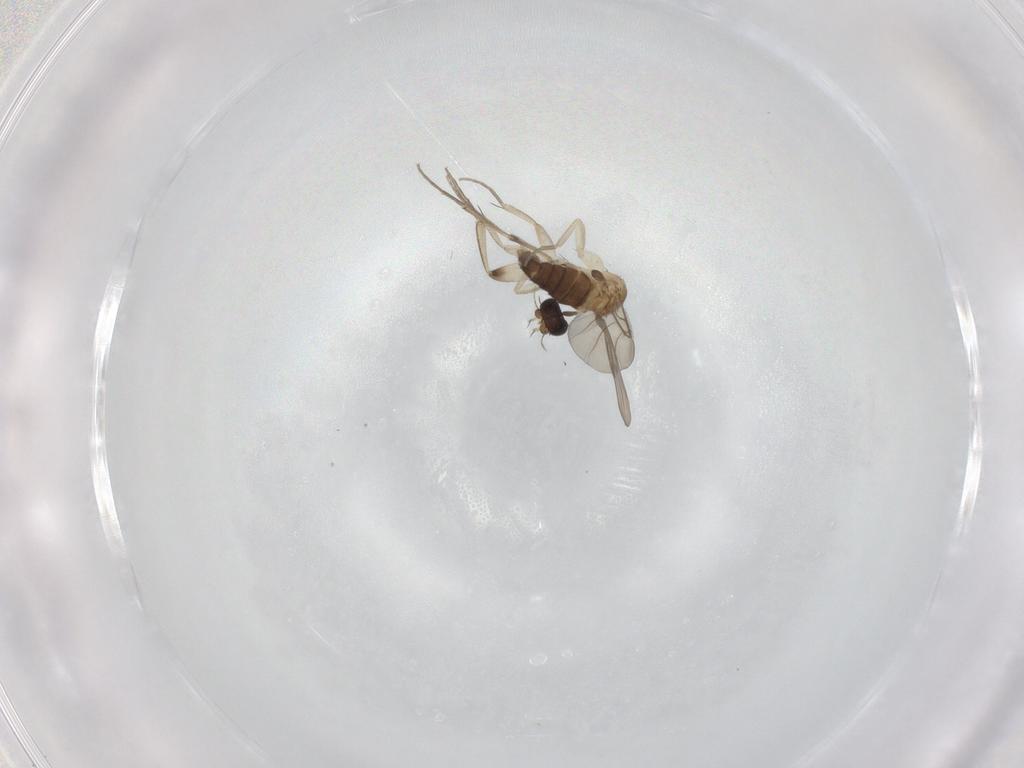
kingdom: Animalia
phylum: Arthropoda
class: Insecta
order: Diptera
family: Phoridae
